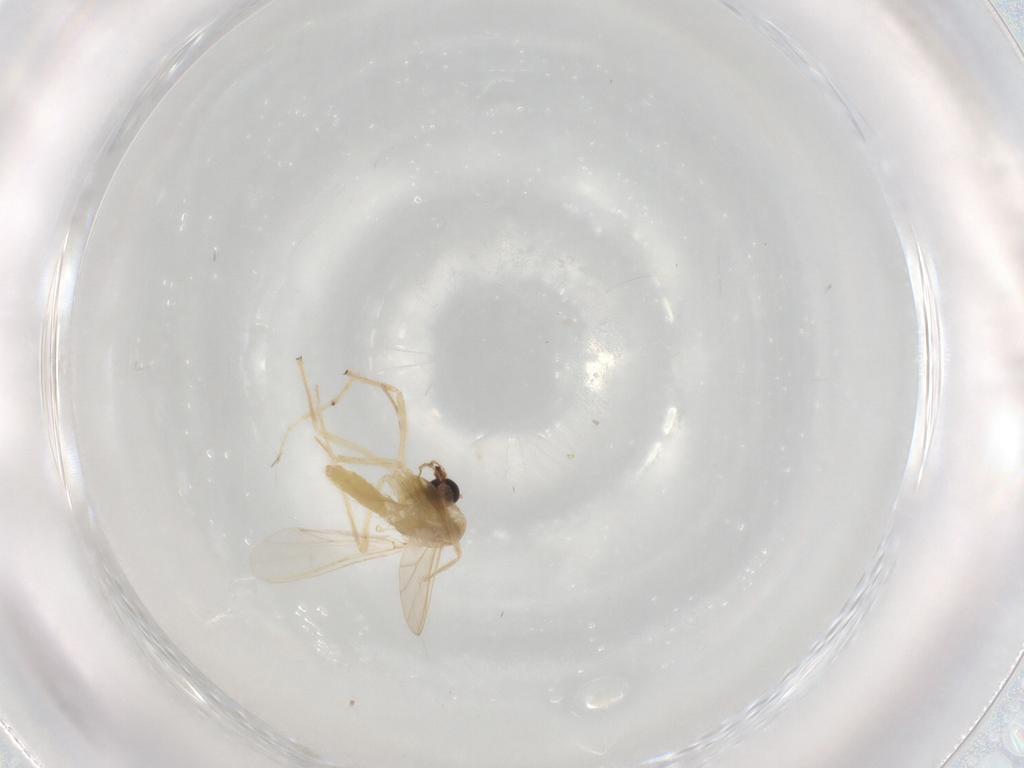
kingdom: Animalia
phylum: Arthropoda
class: Insecta
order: Diptera
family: Chironomidae
